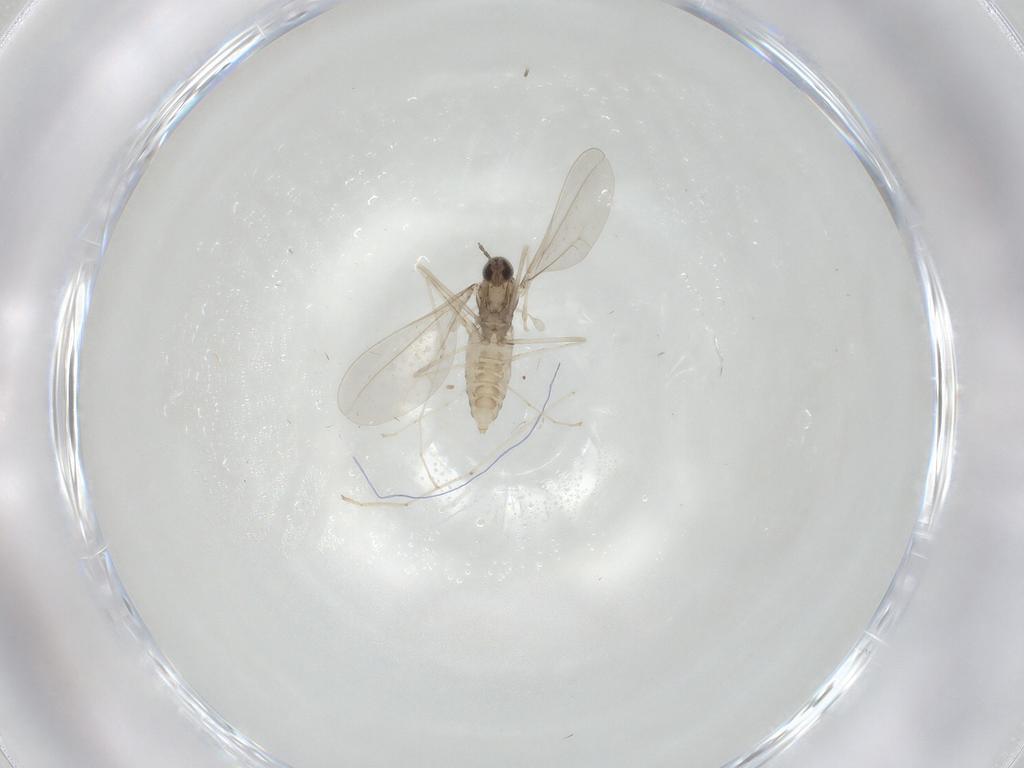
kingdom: Animalia
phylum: Arthropoda
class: Insecta
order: Diptera
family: Cecidomyiidae
